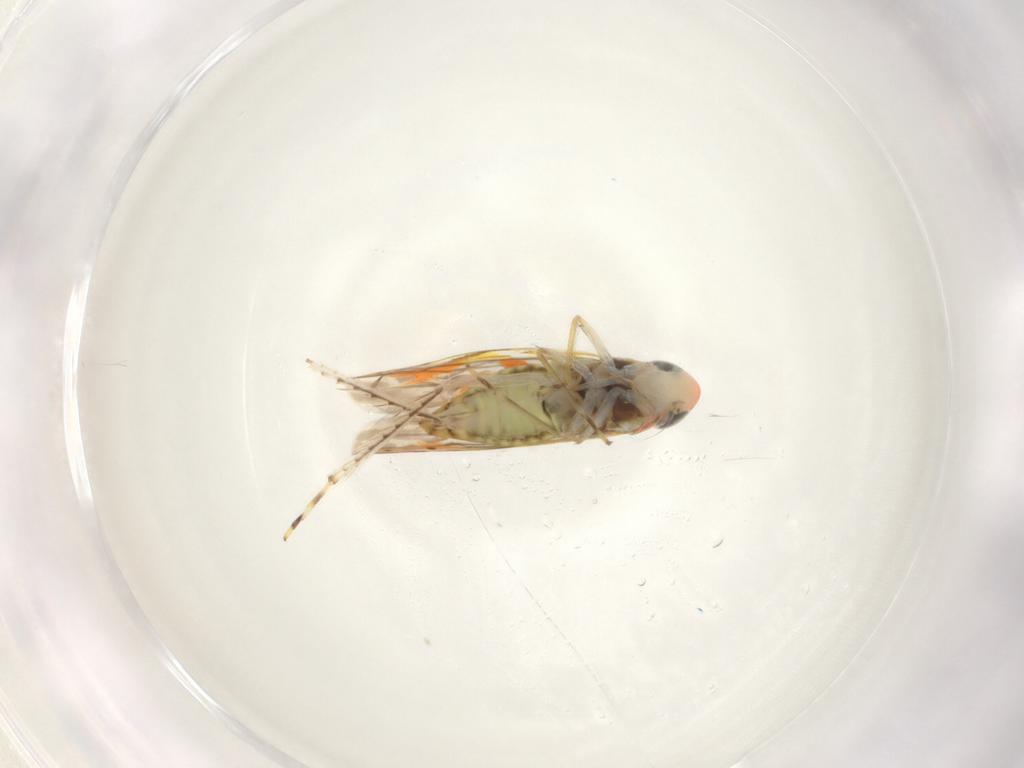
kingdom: Animalia
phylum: Arthropoda
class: Insecta
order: Hemiptera
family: Cicadellidae
